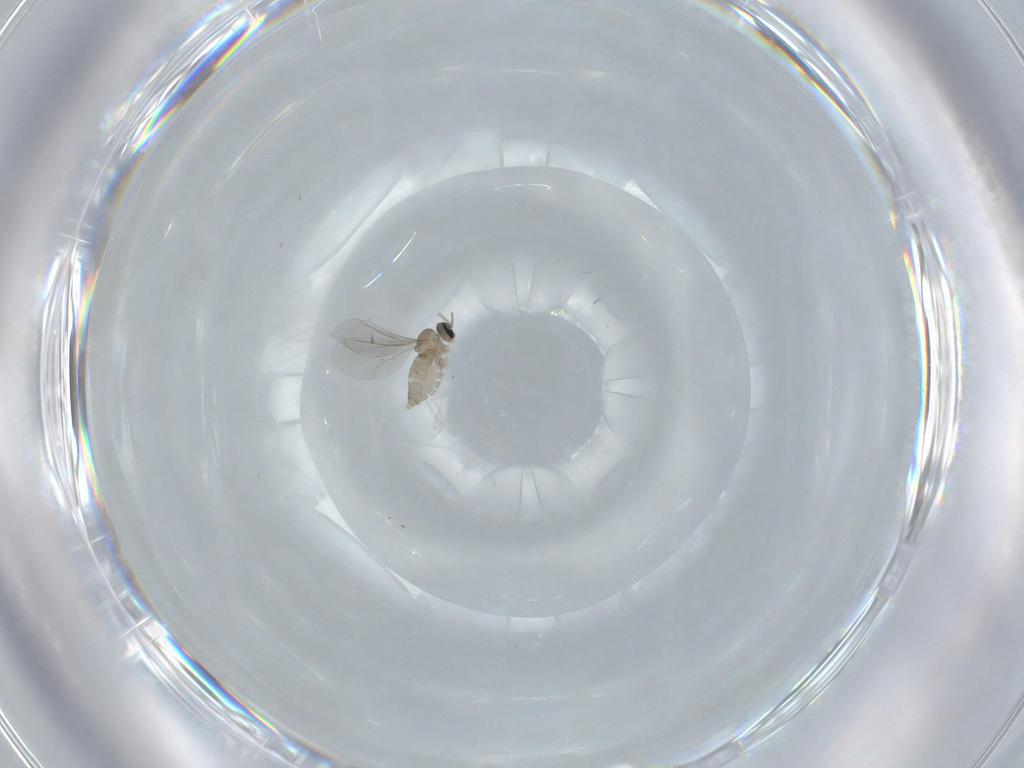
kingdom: Animalia
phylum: Arthropoda
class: Insecta
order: Diptera
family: Cecidomyiidae
